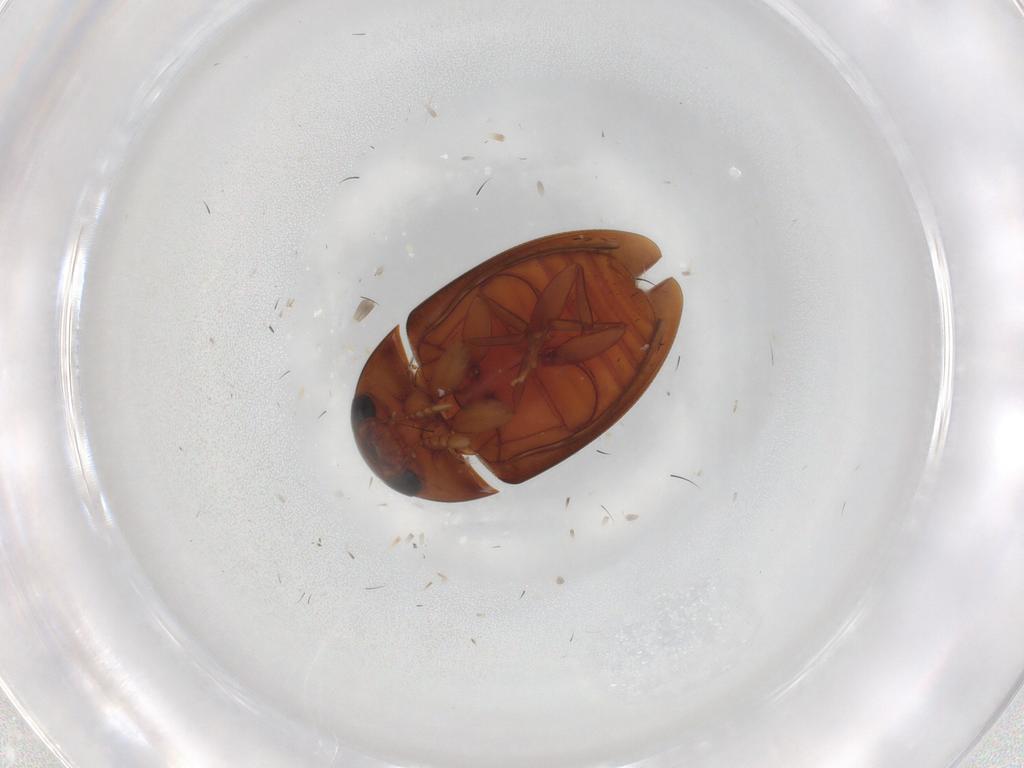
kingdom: Animalia
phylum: Arthropoda
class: Insecta
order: Coleoptera
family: Phalacridae
